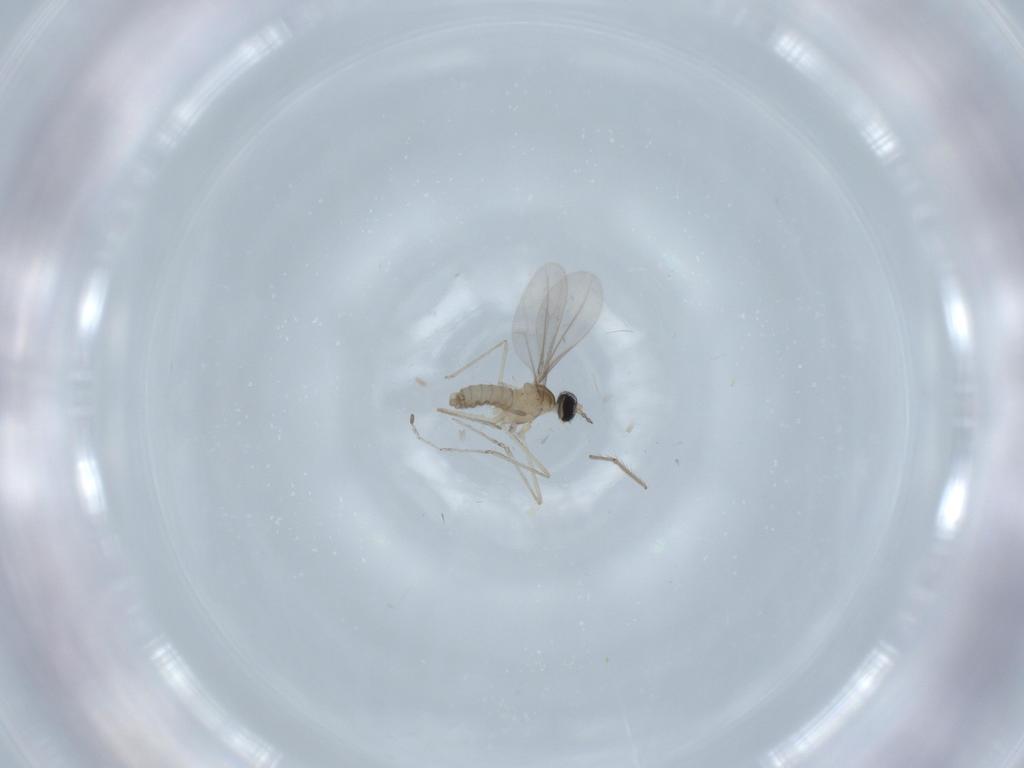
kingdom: Animalia
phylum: Arthropoda
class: Insecta
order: Diptera
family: Cecidomyiidae
